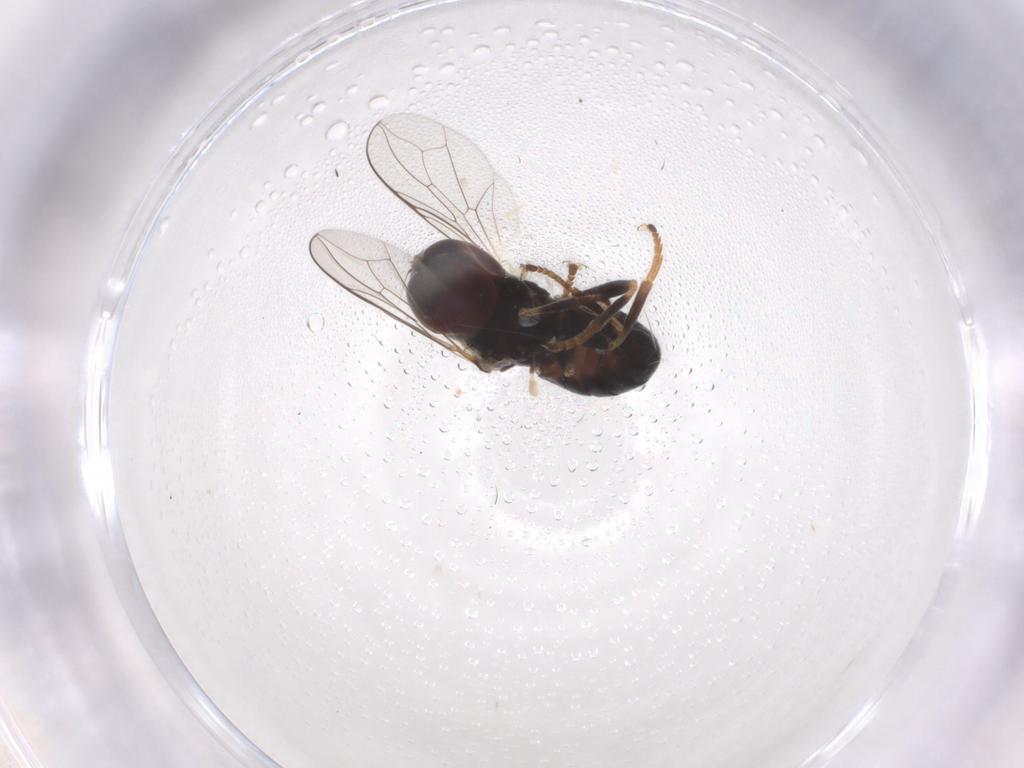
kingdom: Animalia
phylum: Arthropoda
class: Insecta
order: Diptera
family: Pipunculidae
